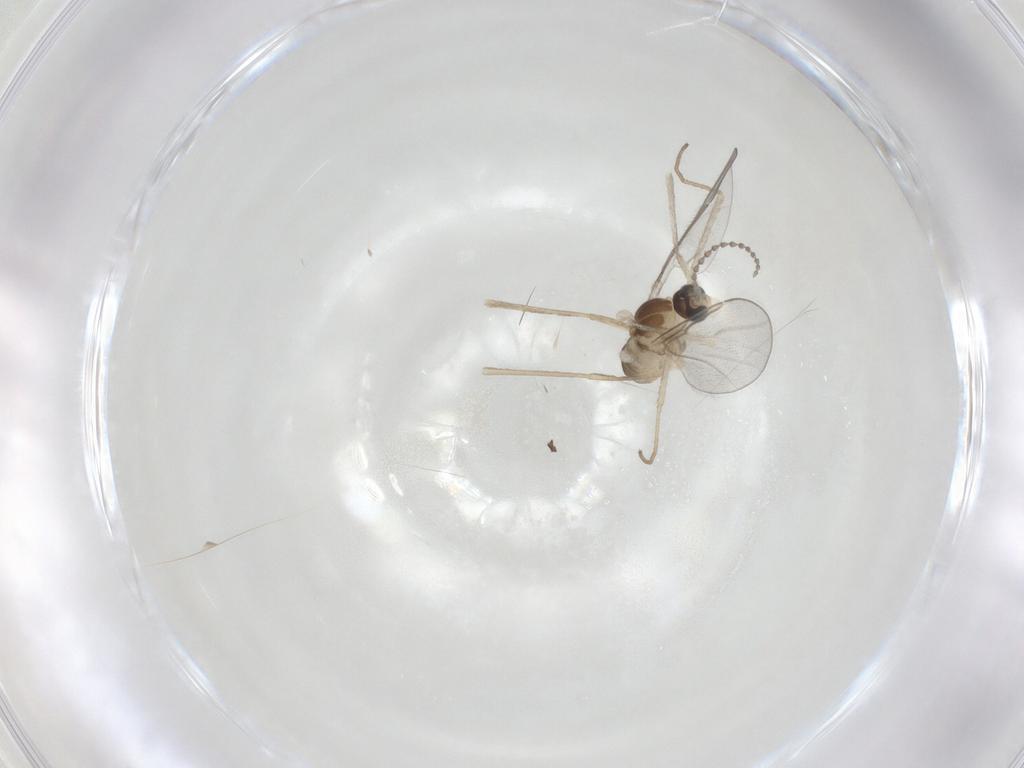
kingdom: Animalia
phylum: Arthropoda
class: Insecta
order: Diptera
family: Cecidomyiidae
